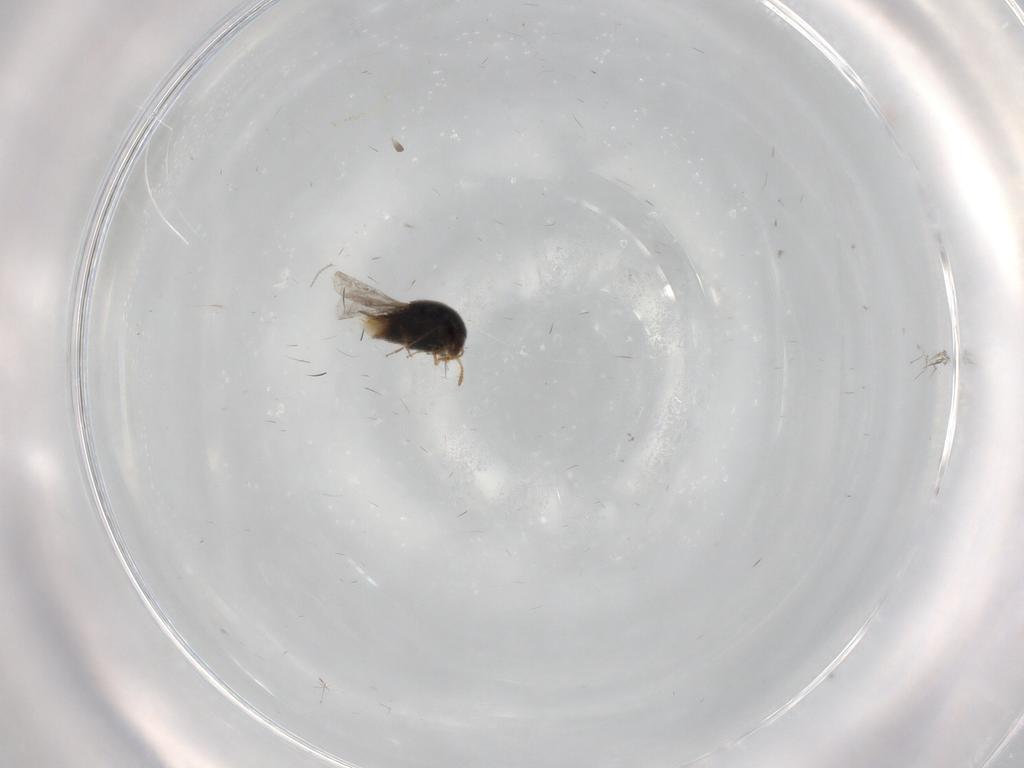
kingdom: Animalia
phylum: Arthropoda
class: Insecta
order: Coleoptera
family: Staphylinidae
